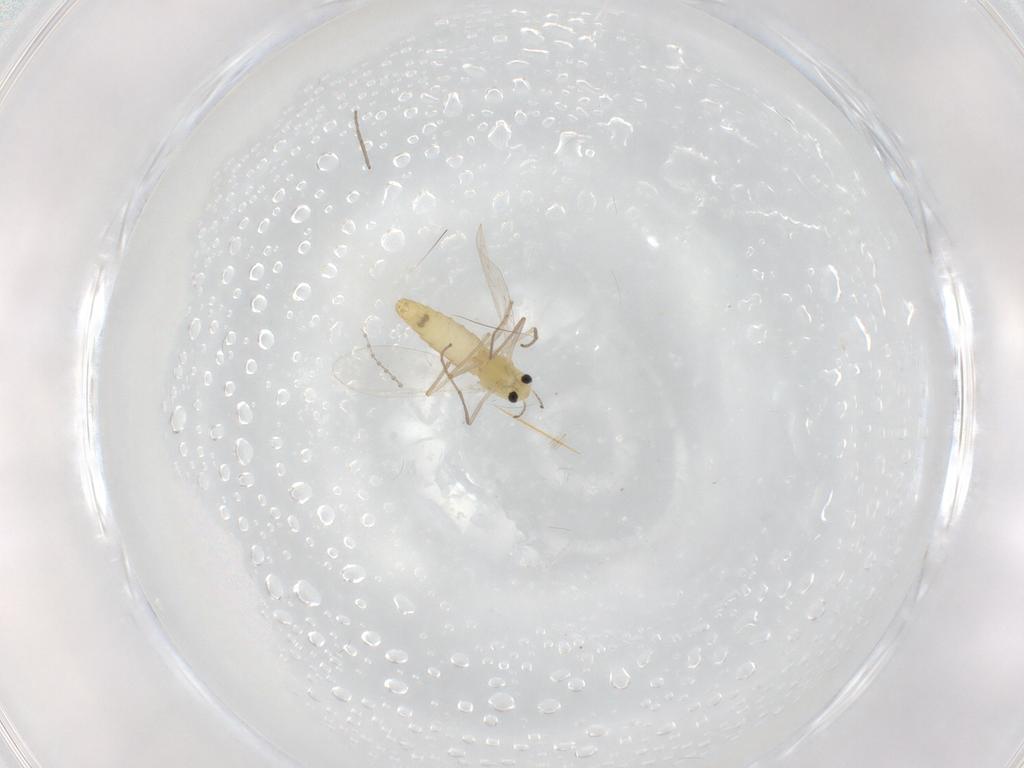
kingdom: Animalia
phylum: Arthropoda
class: Insecta
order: Diptera
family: Chironomidae
